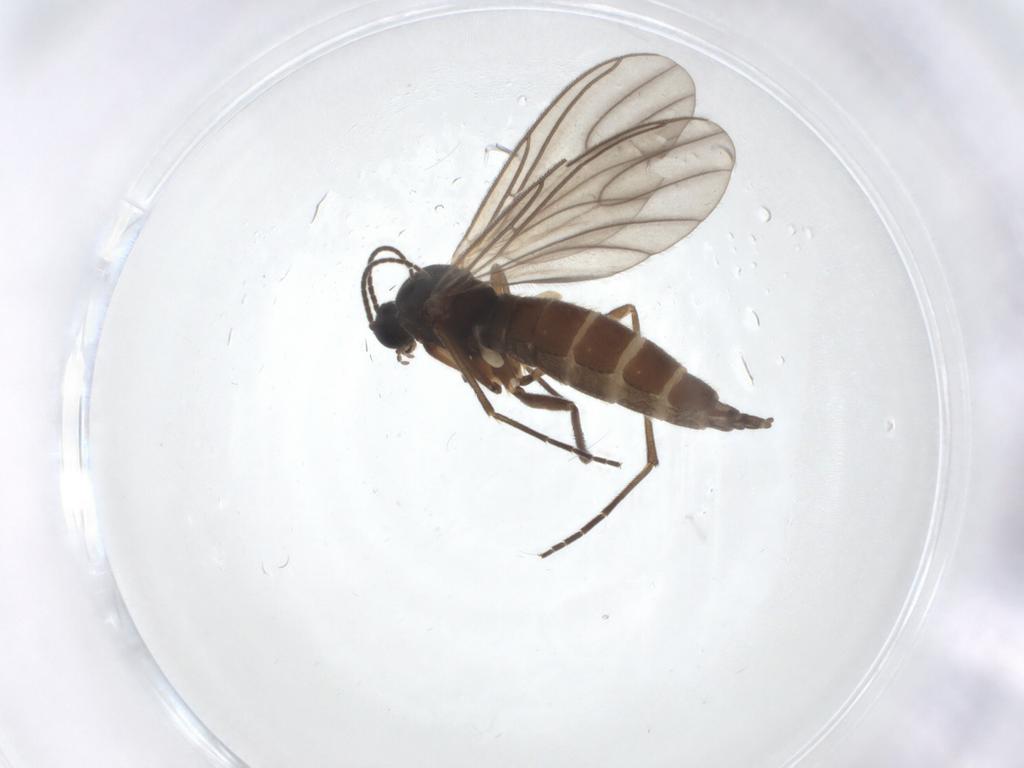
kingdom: Animalia
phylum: Arthropoda
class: Insecta
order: Diptera
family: Sciaridae
